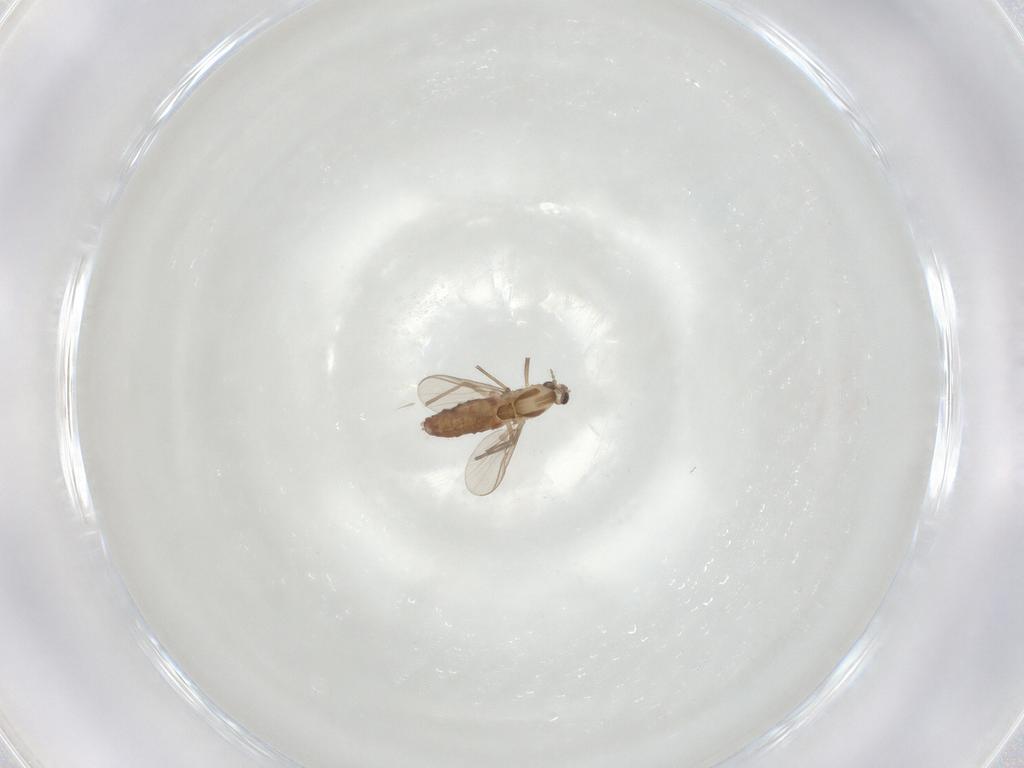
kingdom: Animalia
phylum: Arthropoda
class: Insecta
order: Diptera
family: Chironomidae
